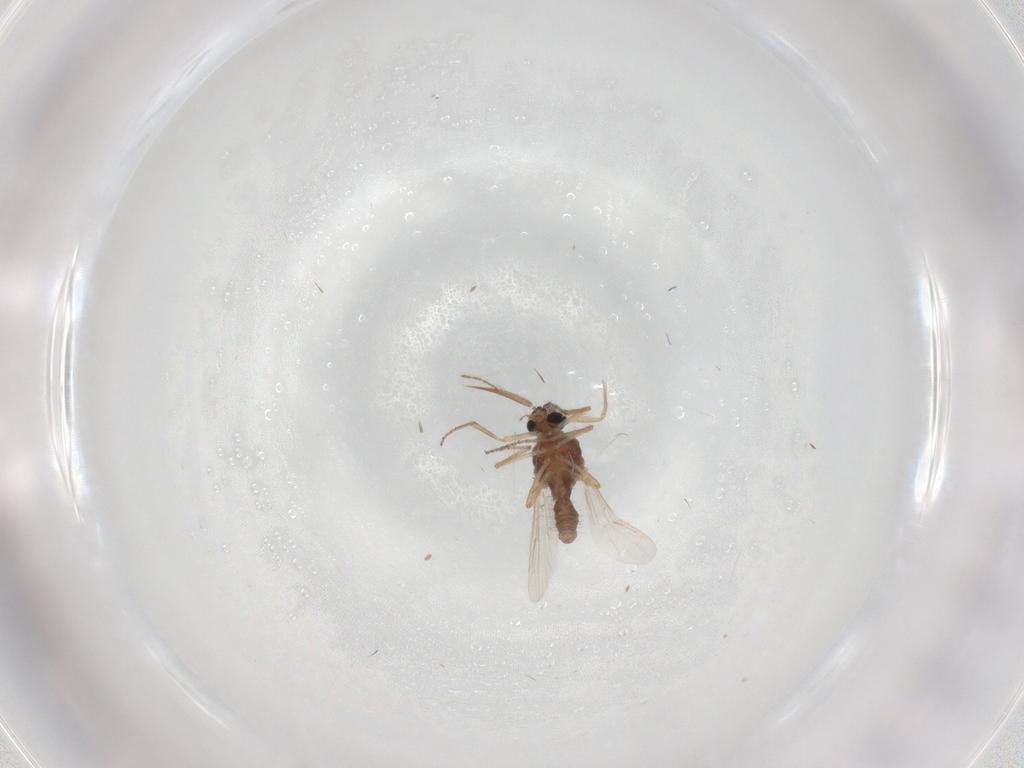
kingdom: Animalia
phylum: Arthropoda
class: Insecta
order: Diptera
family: Ceratopogonidae
